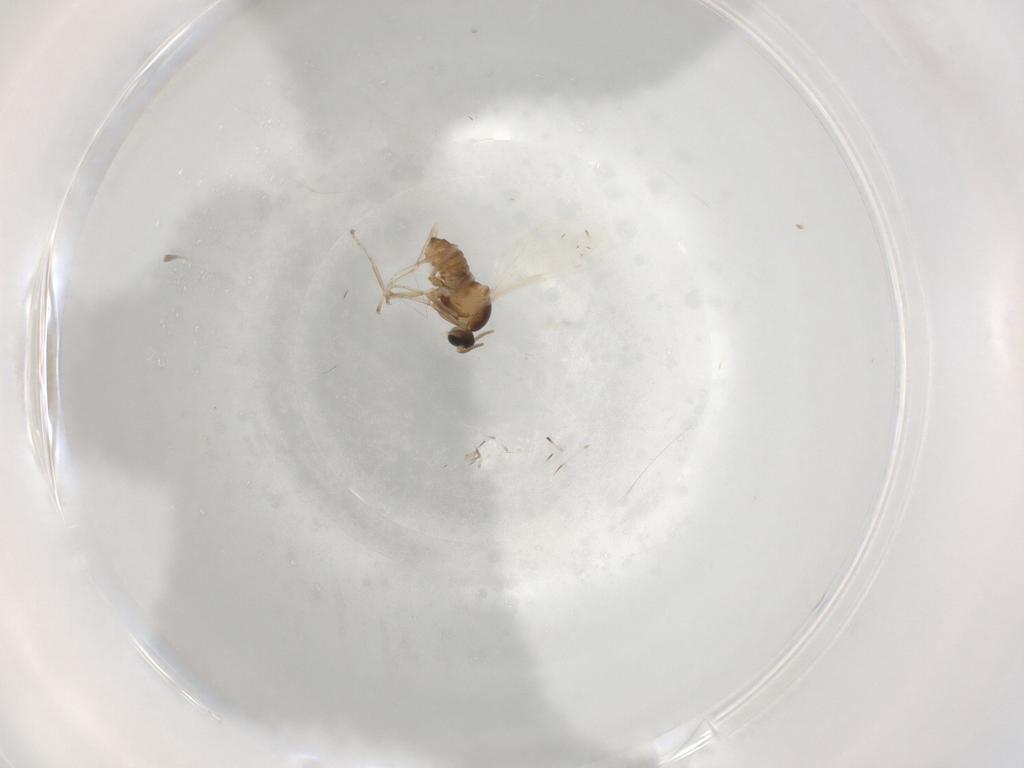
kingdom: Animalia
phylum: Arthropoda
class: Insecta
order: Diptera
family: Cecidomyiidae
